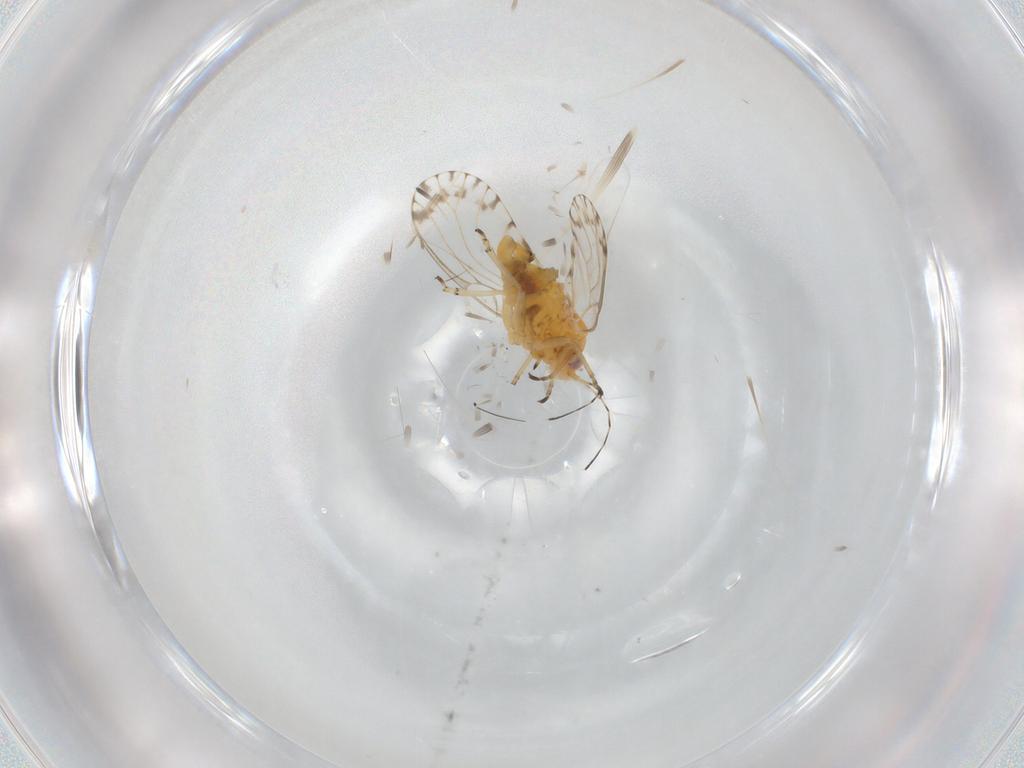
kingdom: Animalia
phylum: Arthropoda
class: Insecta
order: Hemiptera
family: Psyllidae
